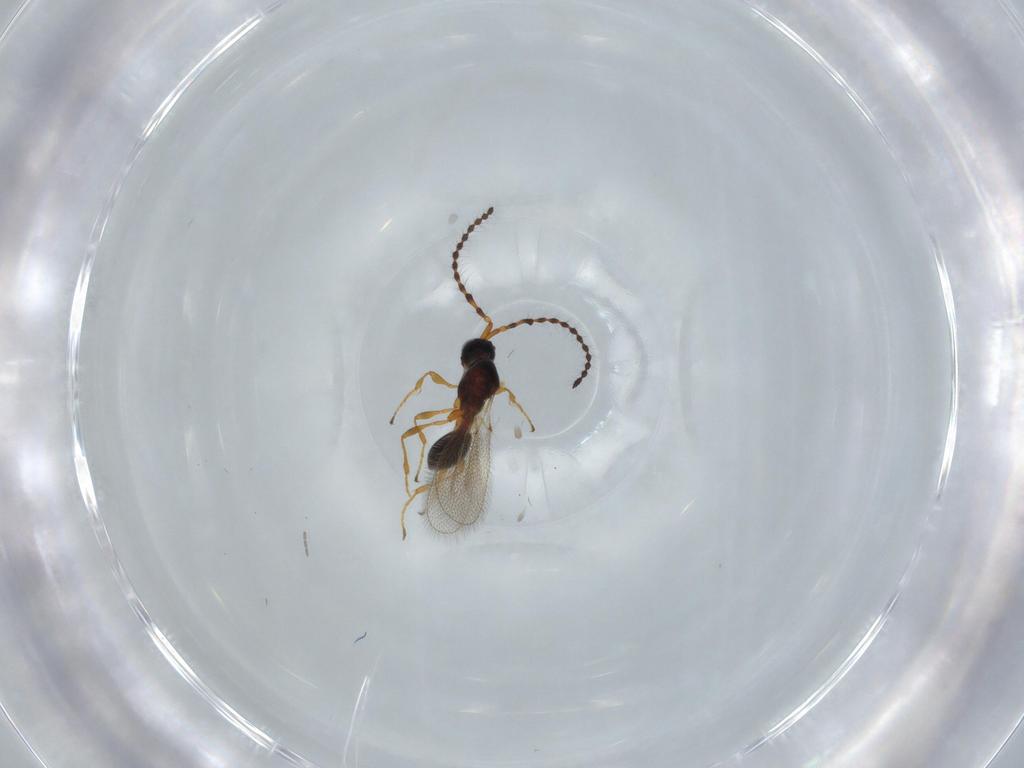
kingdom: Animalia
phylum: Arthropoda
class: Insecta
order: Hymenoptera
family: Diapriidae
